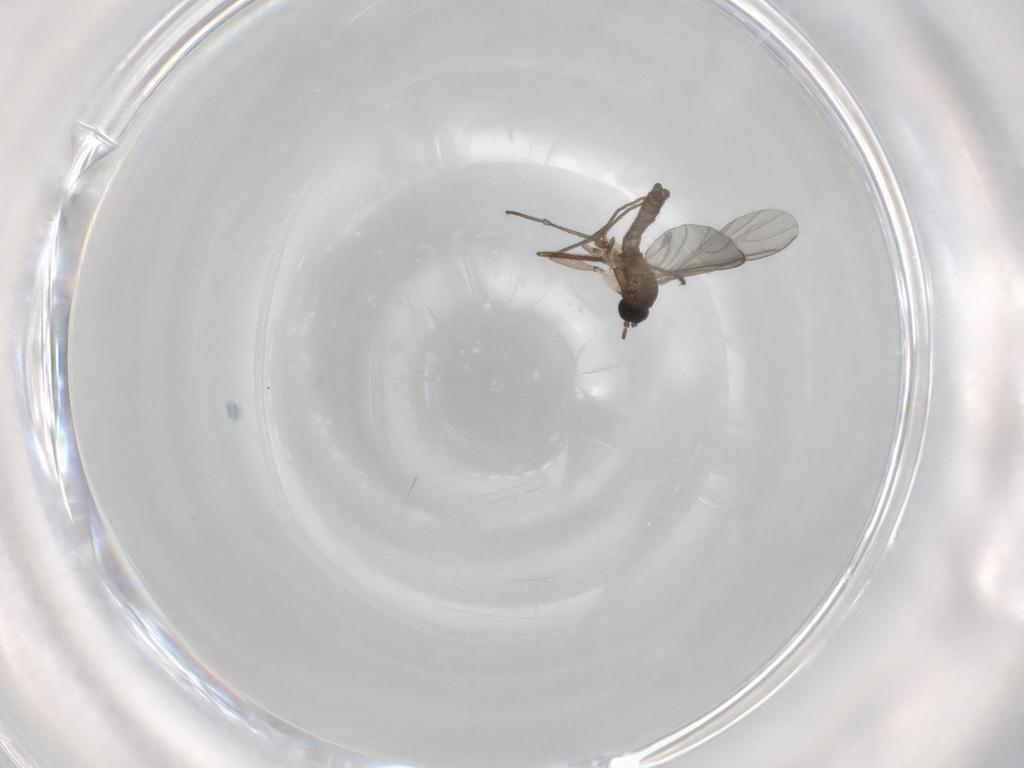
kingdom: Animalia
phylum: Arthropoda
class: Insecta
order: Diptera
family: Sciaridae
